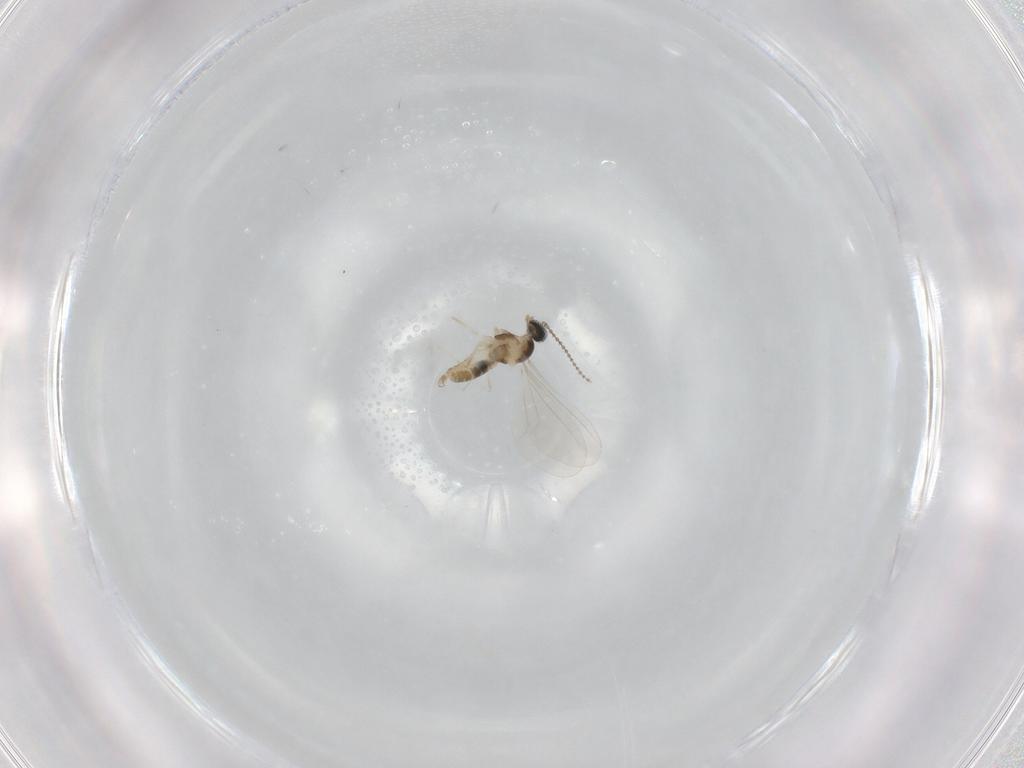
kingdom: Animalia
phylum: Arthropoda
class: Insecta
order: Diptera
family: Cecidomyiidae
